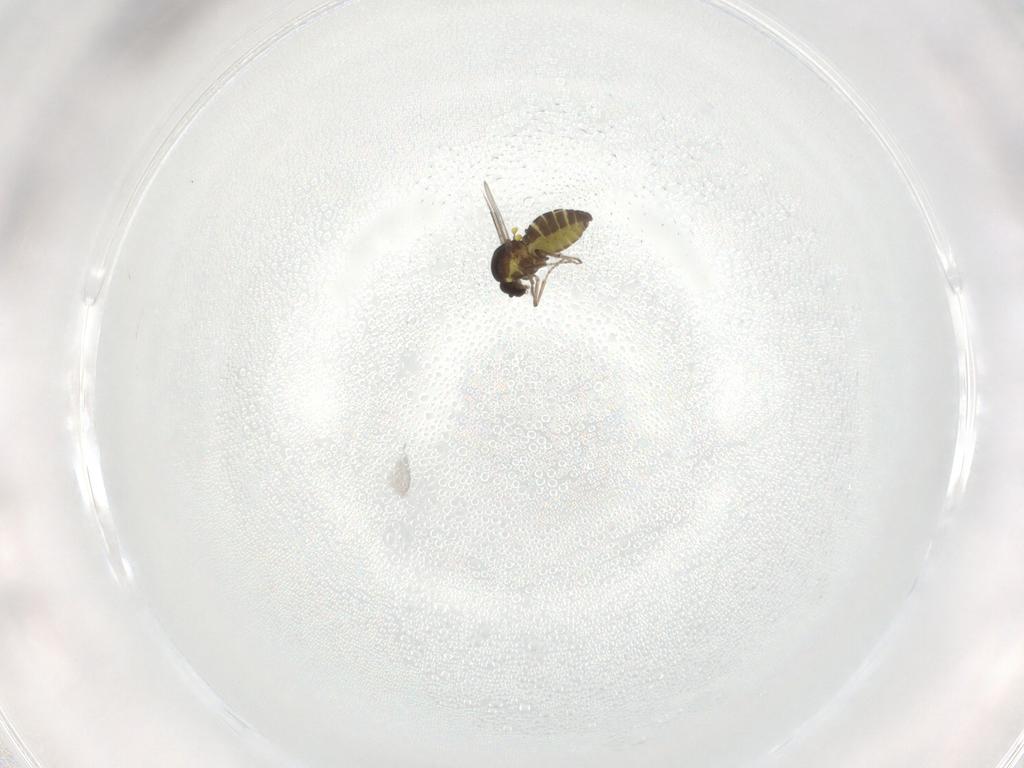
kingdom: Animalia
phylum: Arthropoda
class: Insecta
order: Diptera
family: Ceratopogonidae
